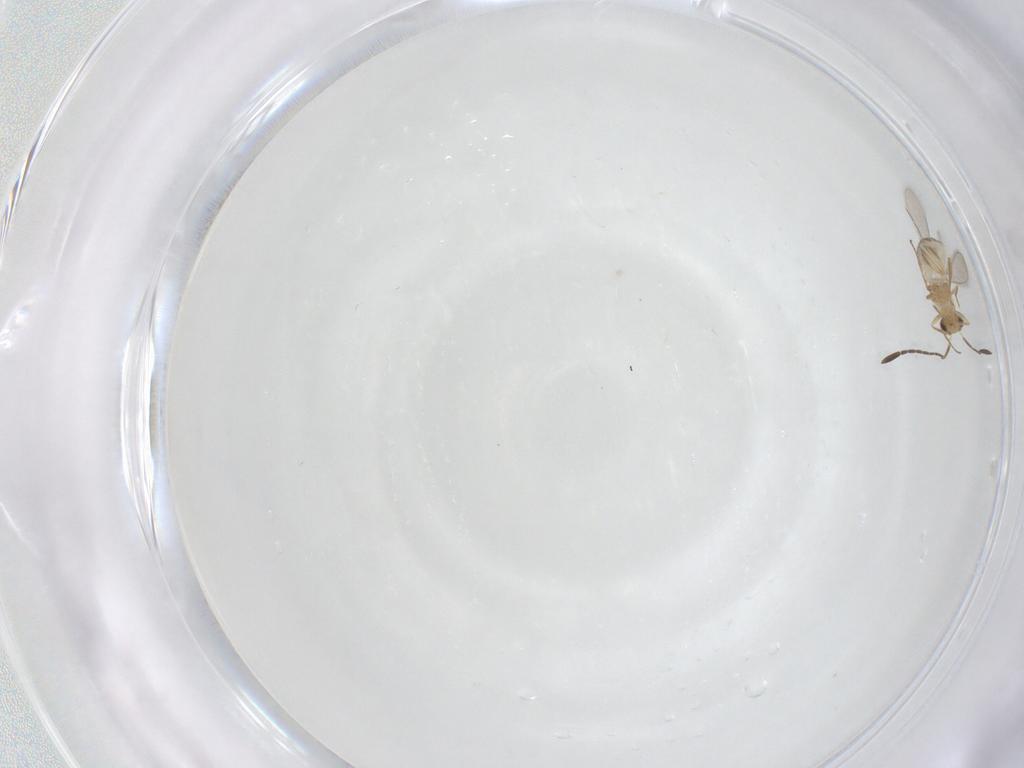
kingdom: Animalia
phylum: Arthropoda
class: Insecta
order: Hymenoptera
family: Mymaridae
